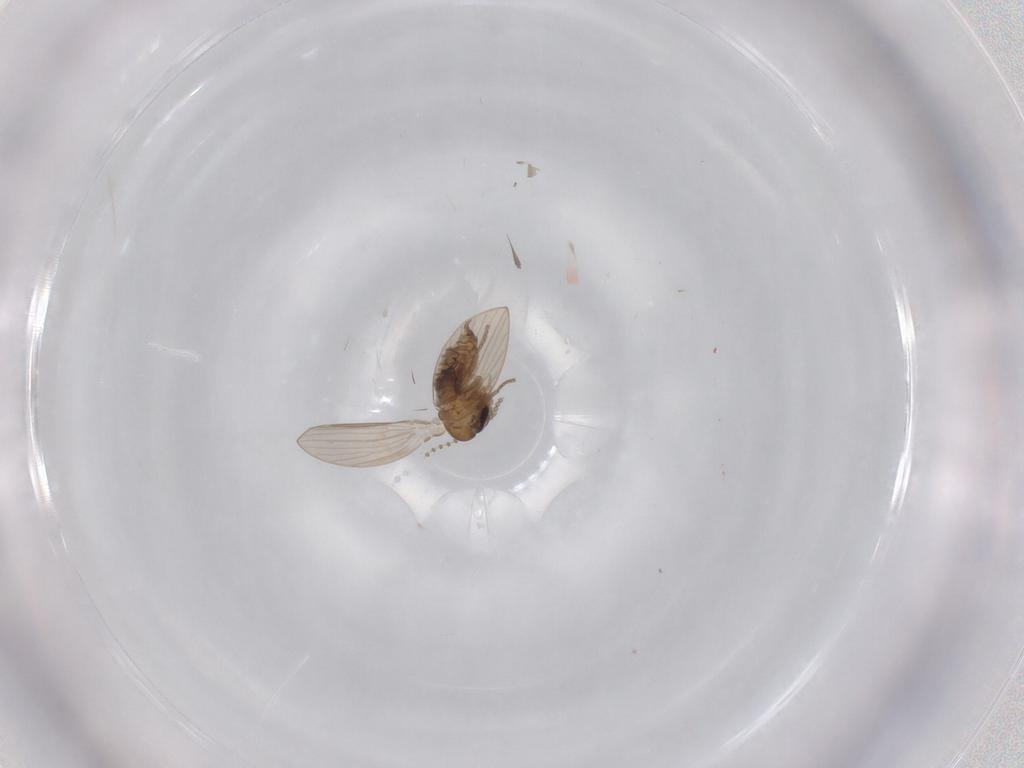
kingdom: Animalia
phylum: Arthropoda
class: Insecta
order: Diptera
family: Psychodidae
